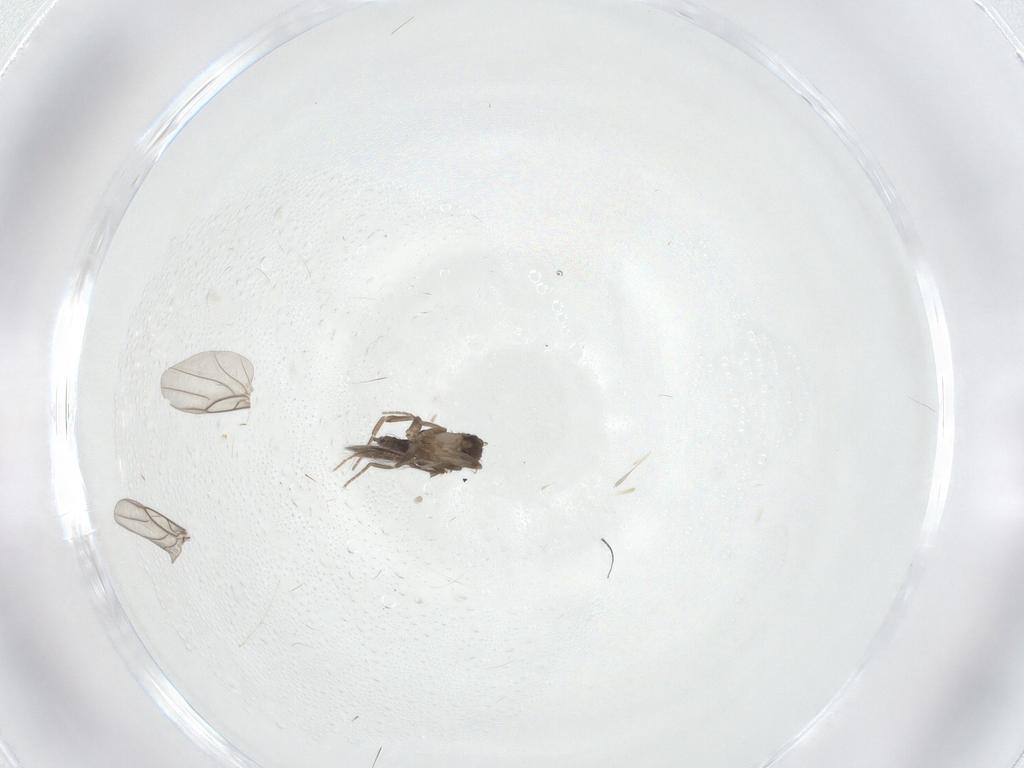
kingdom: Animalia
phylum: Arthropoda
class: Insecta
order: Diptera
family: Ceratopogonidae
